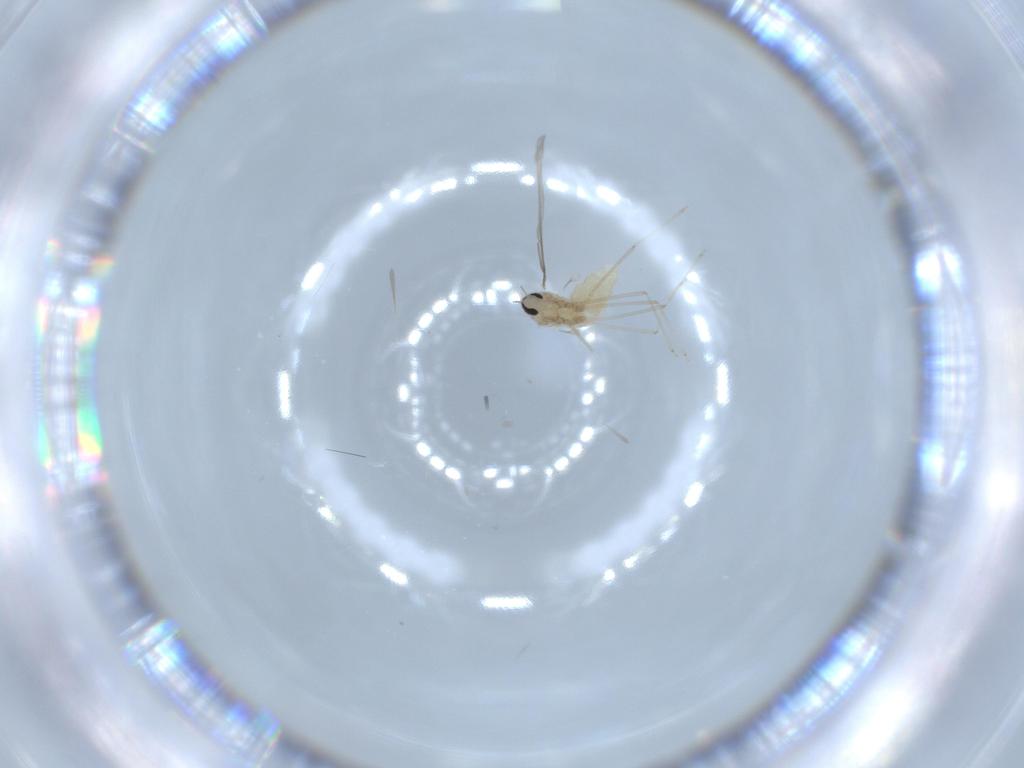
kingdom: Animalia
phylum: Arthropoda
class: Insecta
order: Diptera
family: Cecidomyiidae
